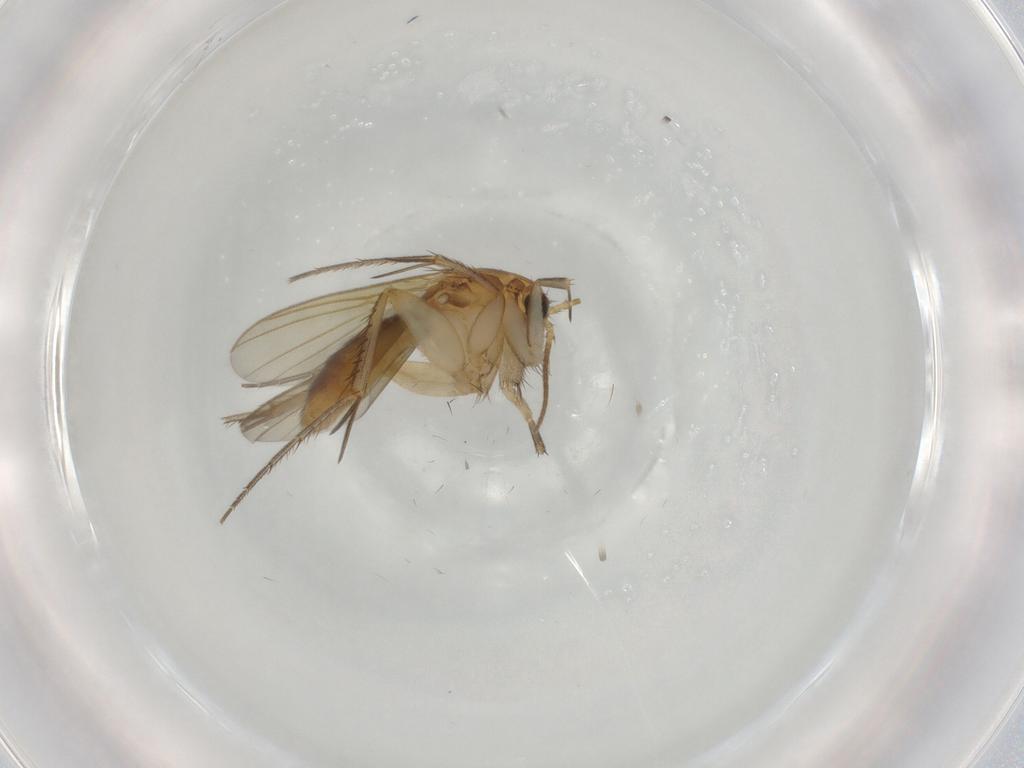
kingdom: Animalia
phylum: Arthropoda
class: Insecta
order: Diptera
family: Mycetophilidae
